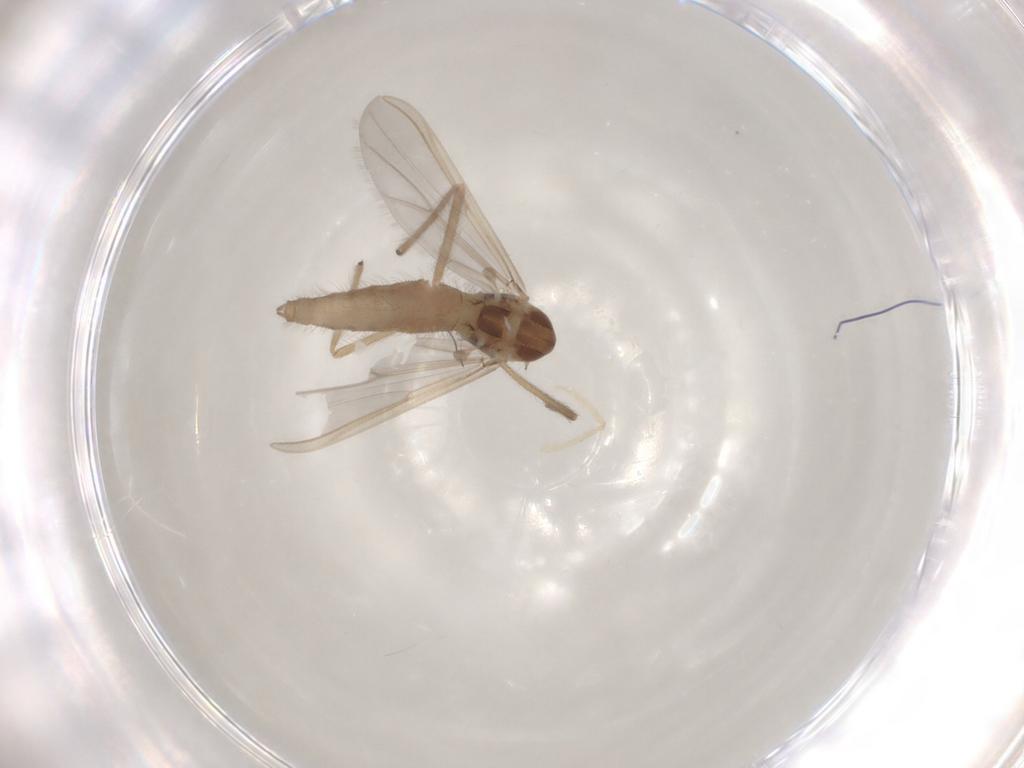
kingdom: Animalia
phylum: Arthropoda
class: Insecta
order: Diptera
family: Chironomidae
